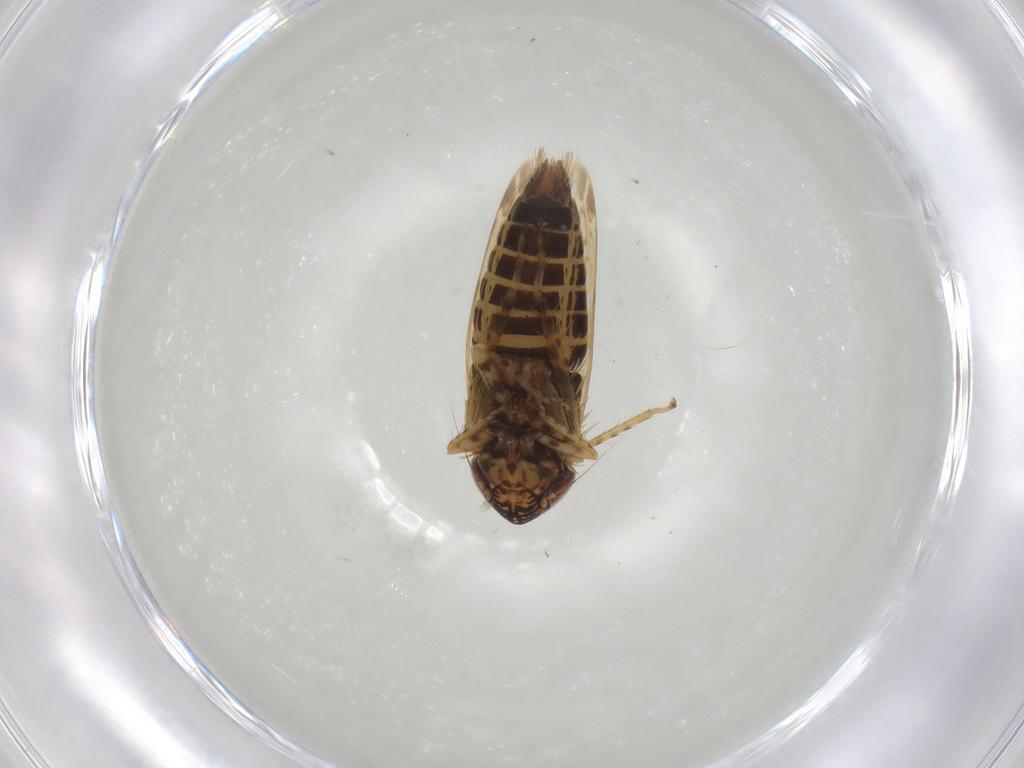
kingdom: Animalia
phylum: Arthropoda
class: Insecta
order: Hemiptera
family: Cicadellidae
